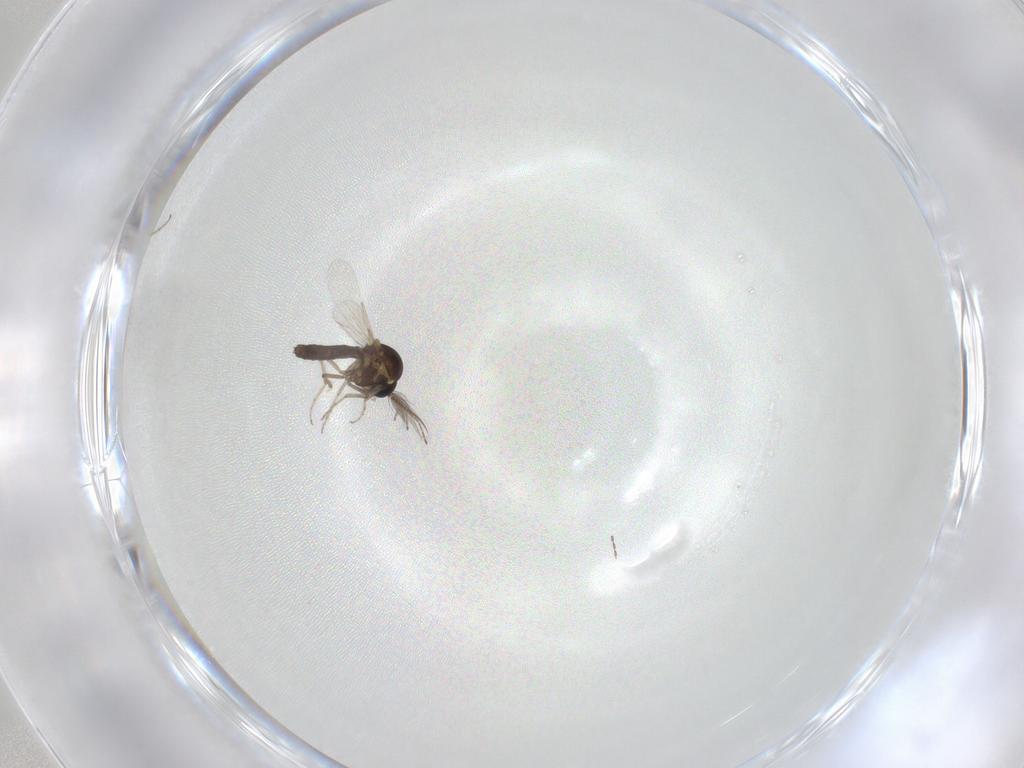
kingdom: Animalia
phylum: Arthropoda
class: Insecta
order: Diptera
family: Ceratopogonidae
